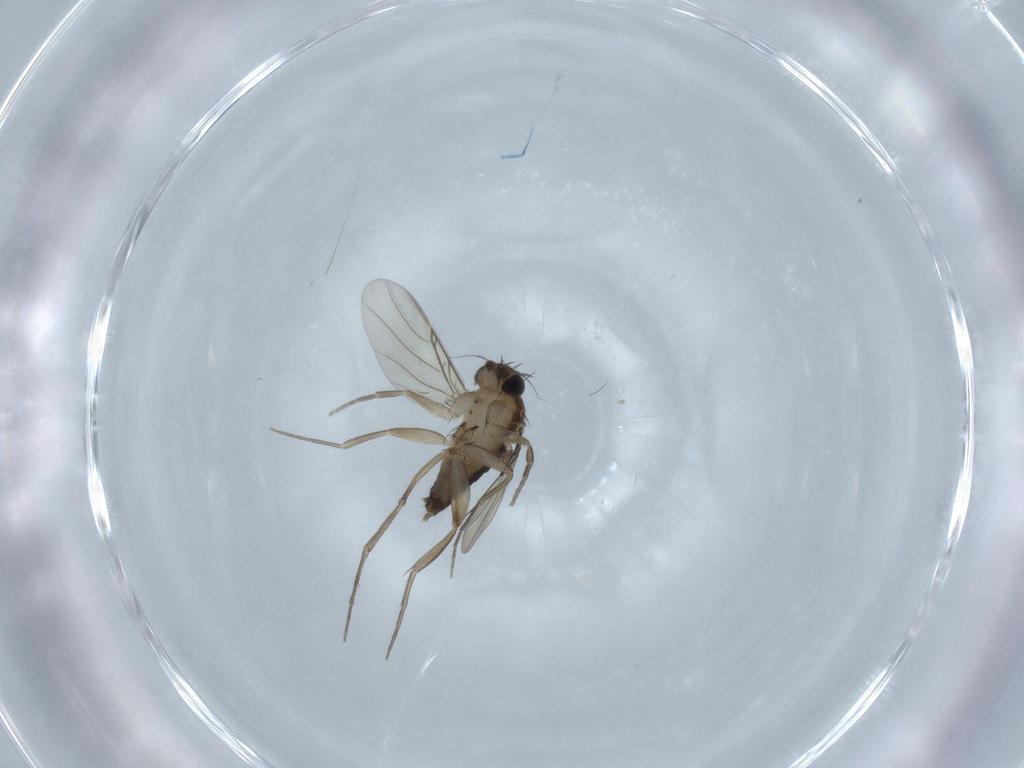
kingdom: Animalia
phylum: Arthropoda
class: Insecta
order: Diptera
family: Phoridae
